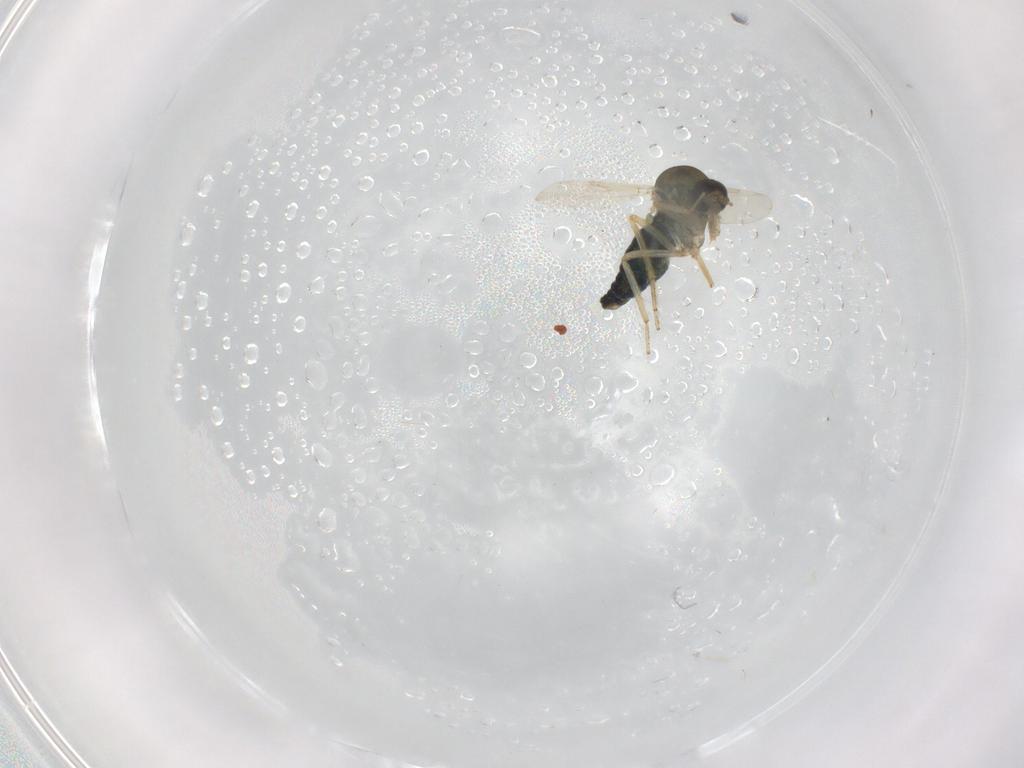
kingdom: Animalia
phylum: Arthropoda
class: Insecta
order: Diptera
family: Ceratopogonidae
